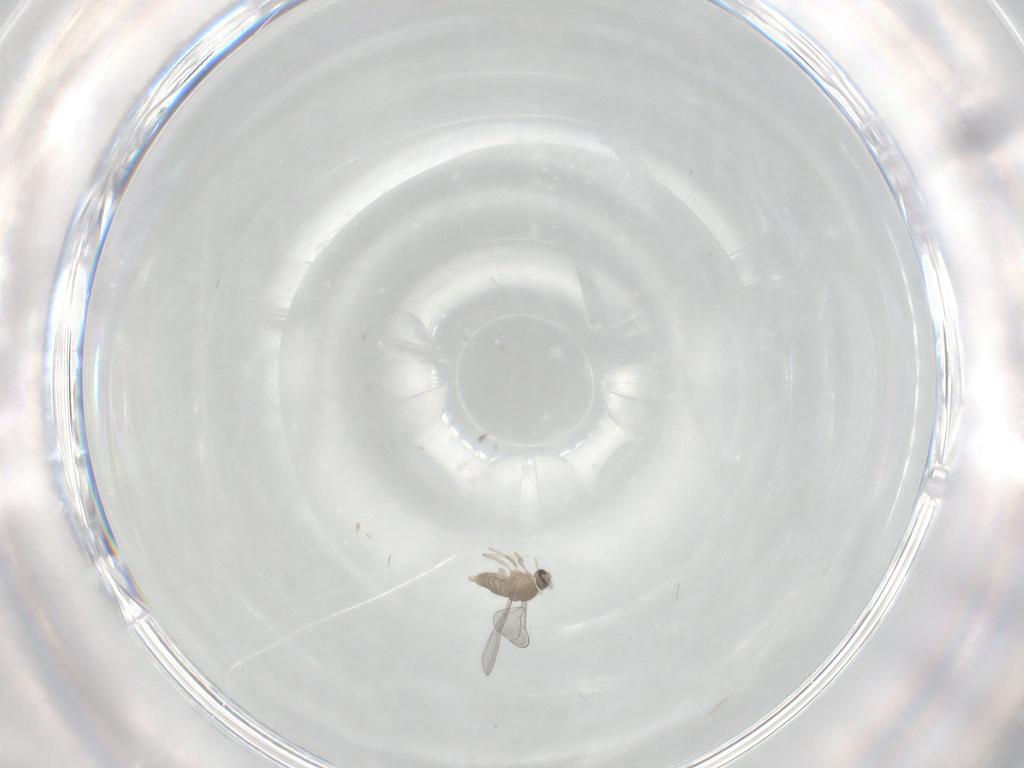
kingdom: Animalia
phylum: Arthropoda
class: Insecta
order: Diptera
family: Cecidomyiidae
